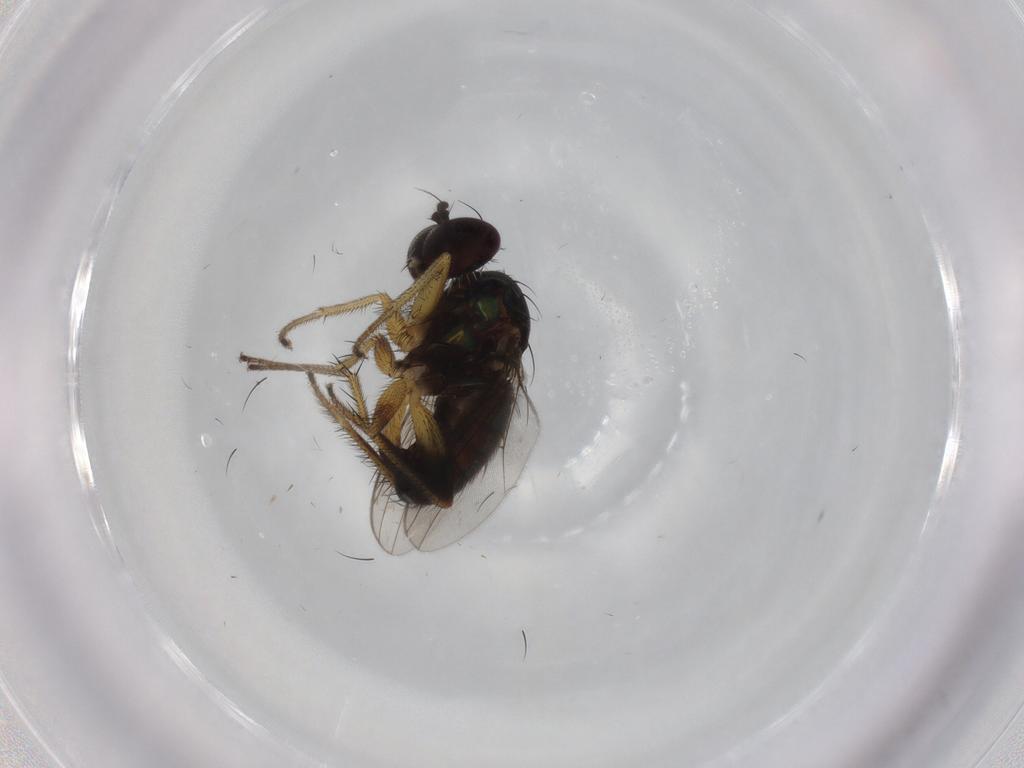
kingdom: Animalia
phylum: Arthropoda
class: Insecta
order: Diptera
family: Dolichopodidae
